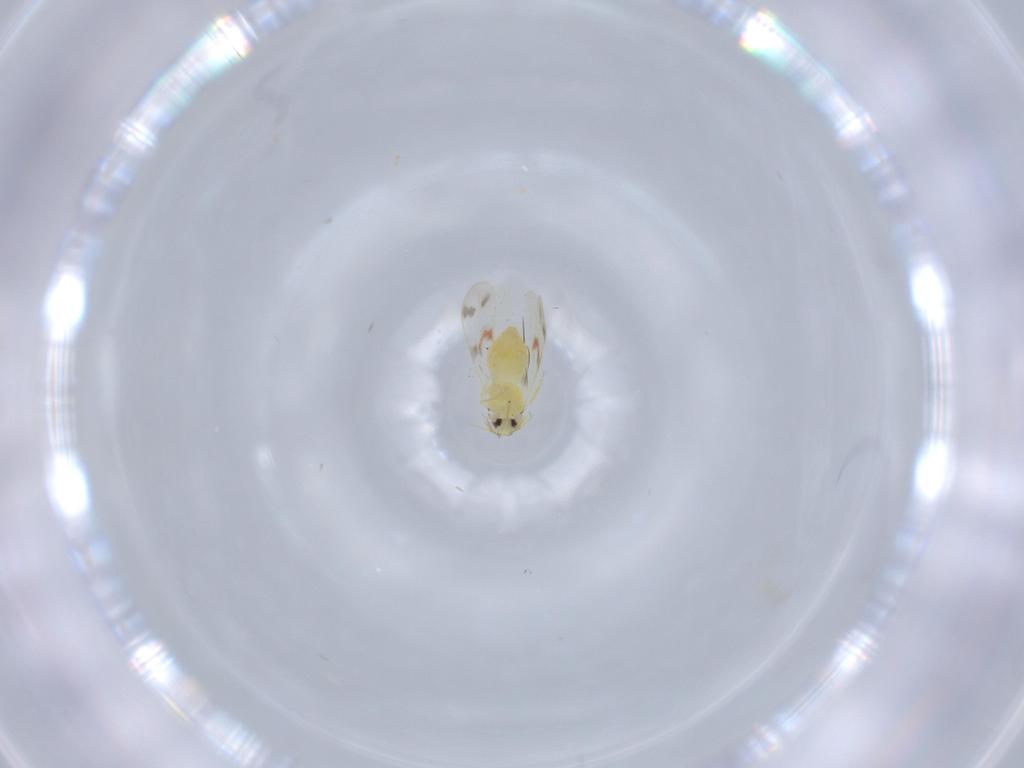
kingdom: Animalia
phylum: Arthropoda
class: Insecta
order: Hemiptera
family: Aleyrodidae
